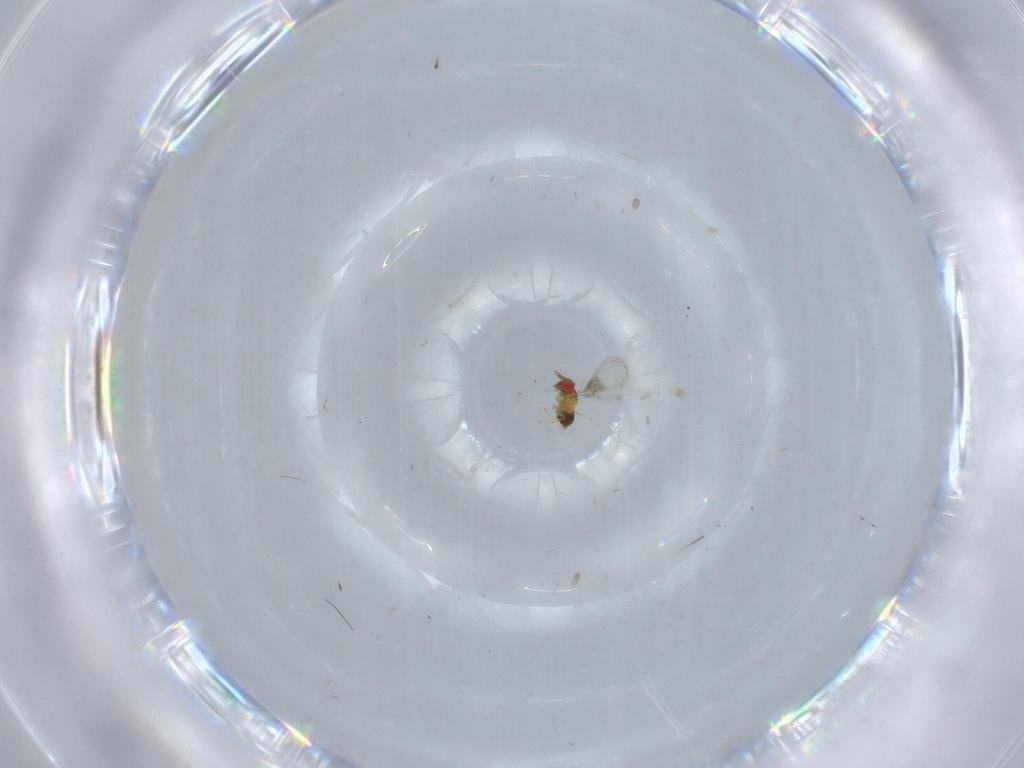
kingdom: Animalia
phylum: Arthropoda
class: Insecta
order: Hymenoptera
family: Trichogrammatidae
